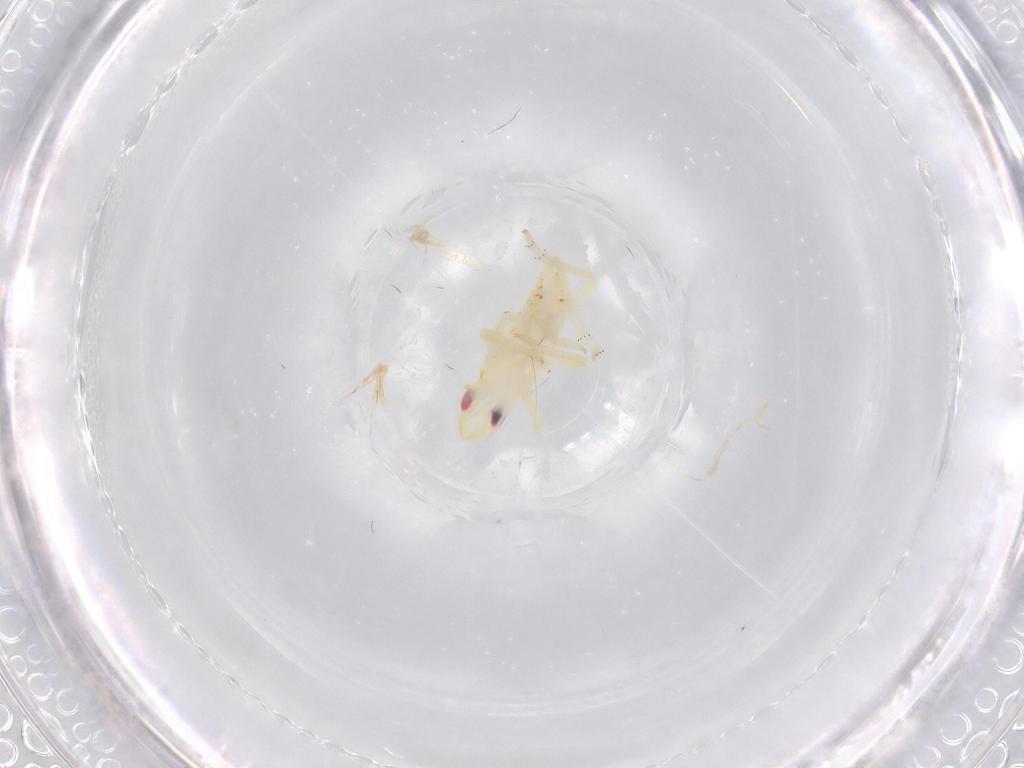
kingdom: Animalia
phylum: Arthropoda
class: Insecta
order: Hemiptera
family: Tropiduchidae
